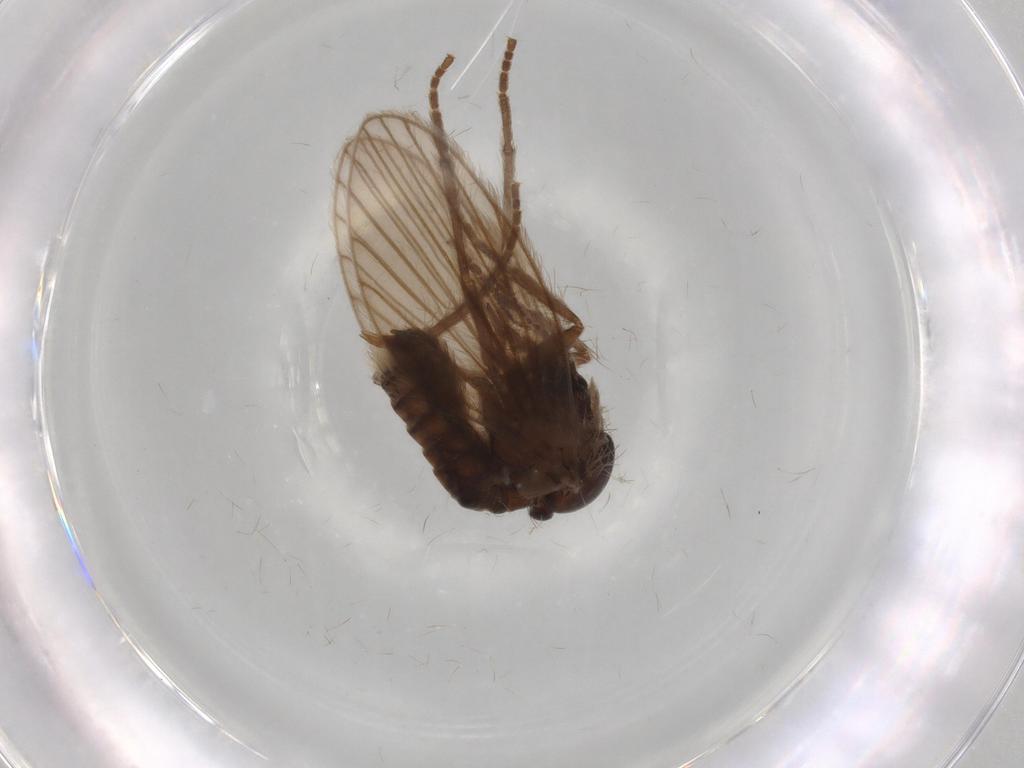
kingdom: Animalia
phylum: Arthropoda
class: Insecta
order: Diptera
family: Psychodidae
